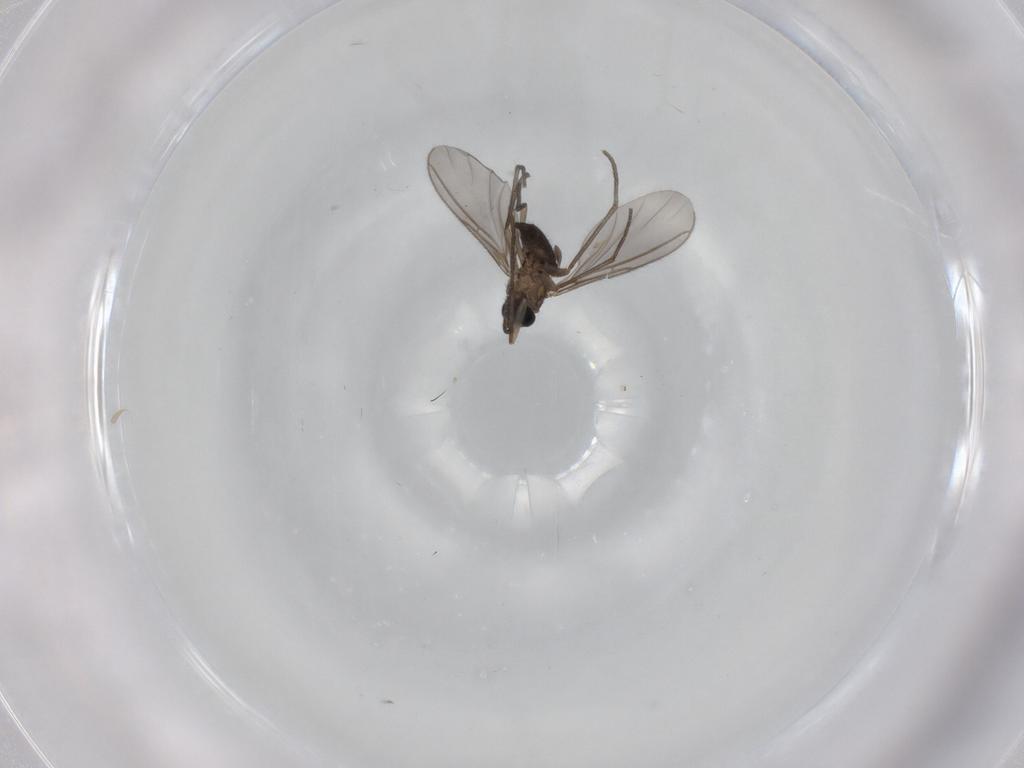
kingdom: Animalia
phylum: Arthropoda
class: Insecta
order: Diptera
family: Sciaridae
